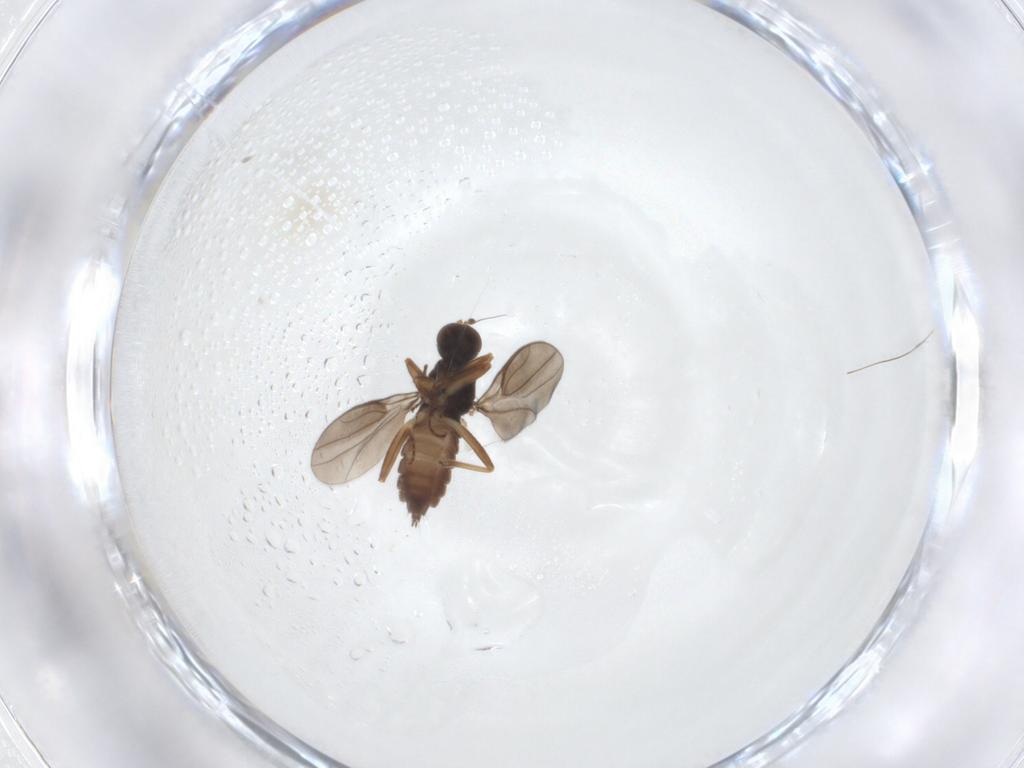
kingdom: Animalia
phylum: Arthropoda
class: Insecta
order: Diptera
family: Hybotidae
